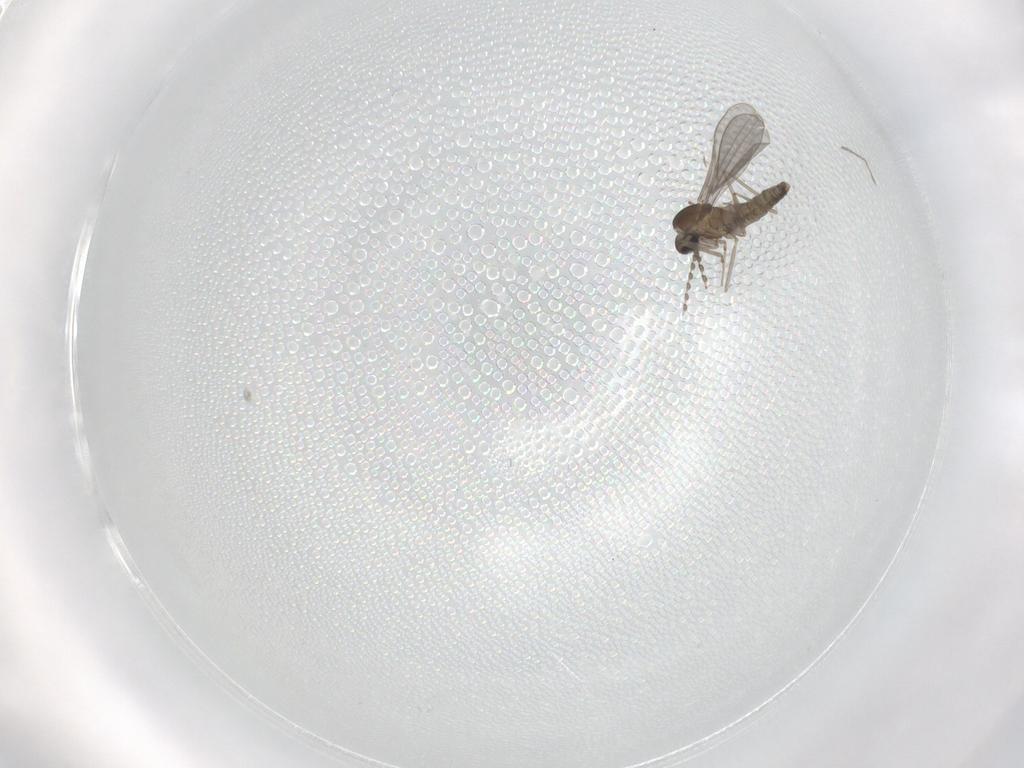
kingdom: Animalia
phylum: Arthropoda
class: Insecta
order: Diptera
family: Cecidomyiidae
